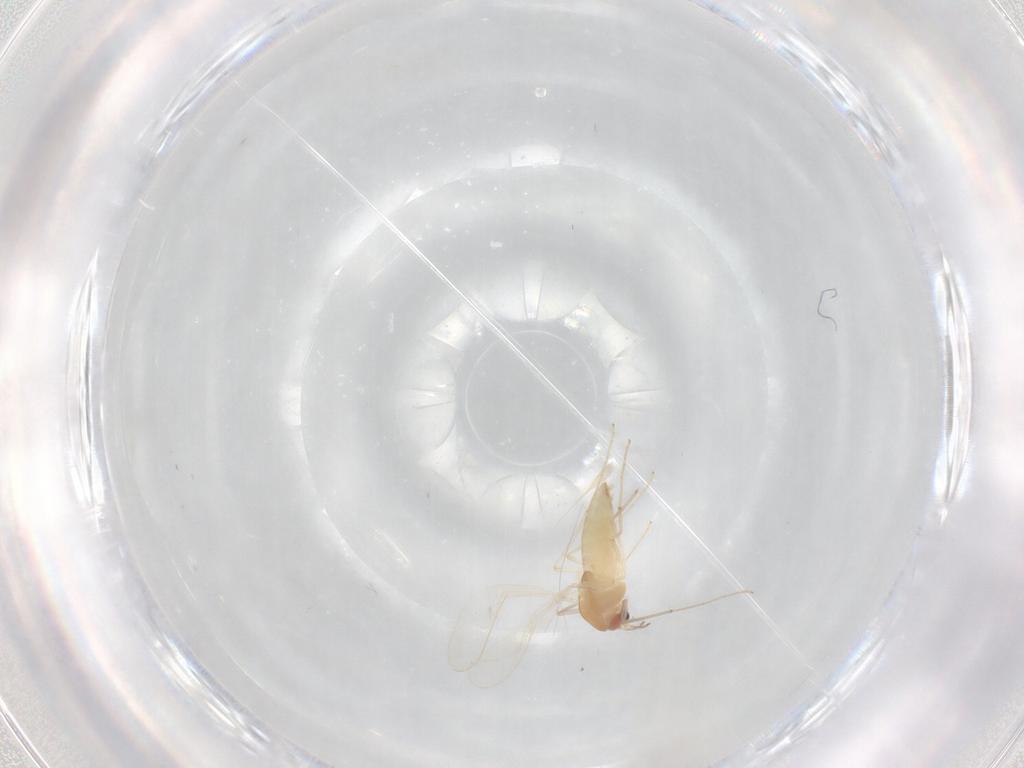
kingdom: Animalia
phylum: Arthropoda
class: Insecta
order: Diptera
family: Chironomidae
